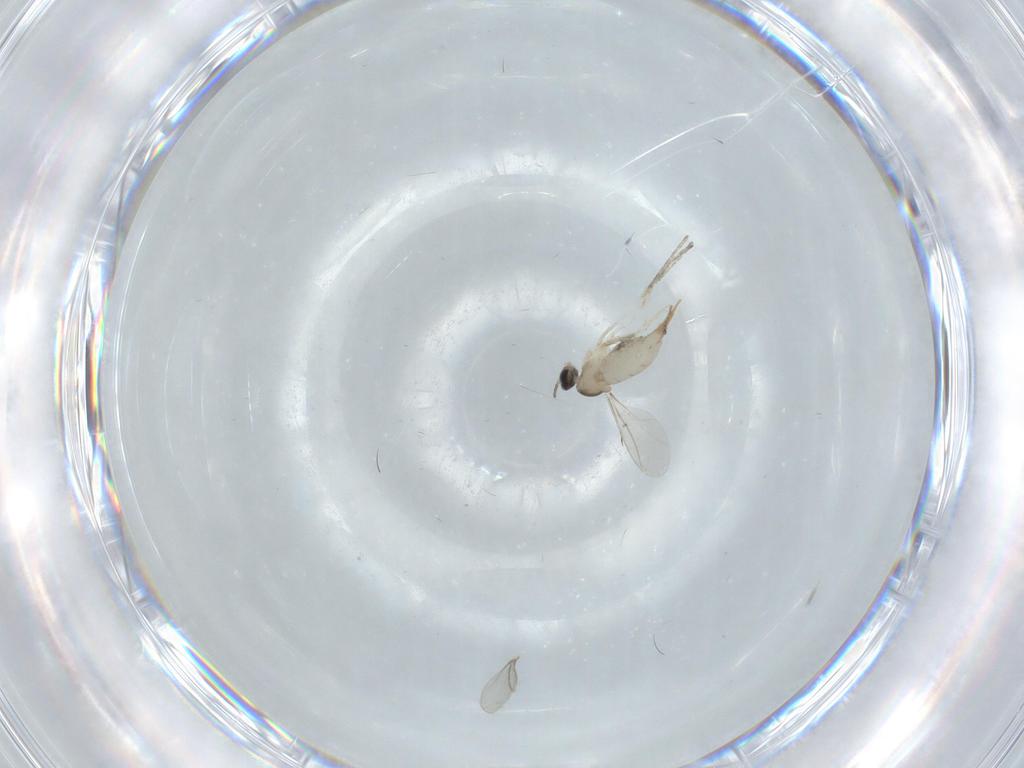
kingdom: Animalia
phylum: Arthropoda
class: Insecta
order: Diptera
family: Cecidomyiidae
